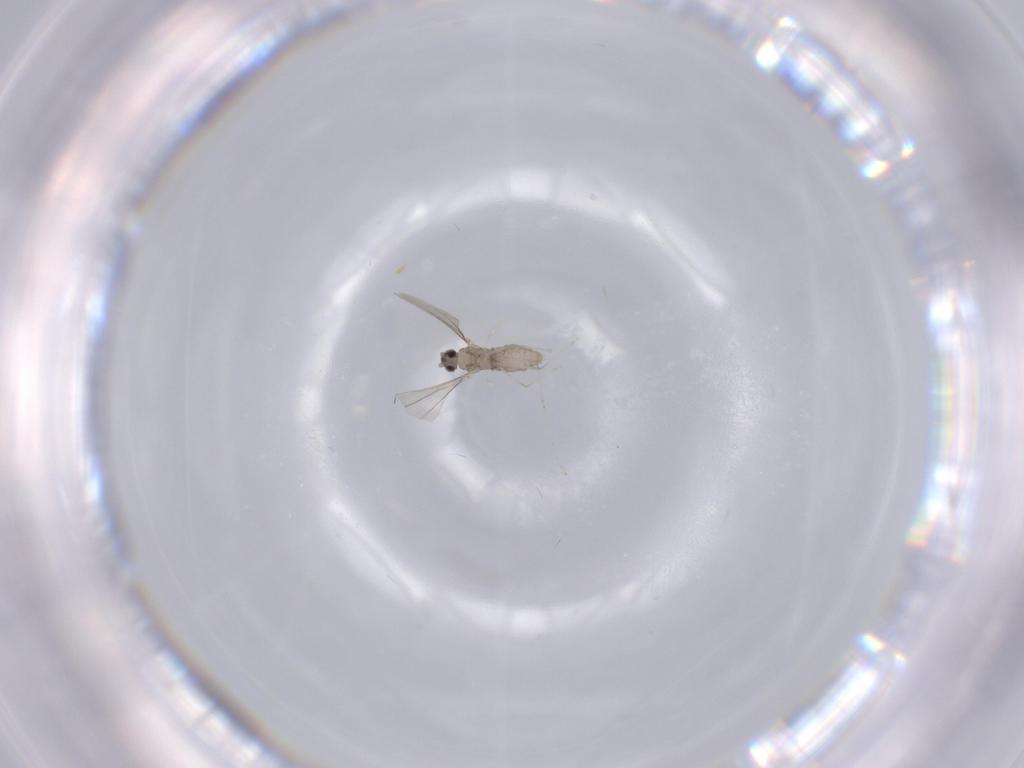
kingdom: Animalia
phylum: Arthropoda
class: Insecta
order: Diptera
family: Cecidomyiidae
